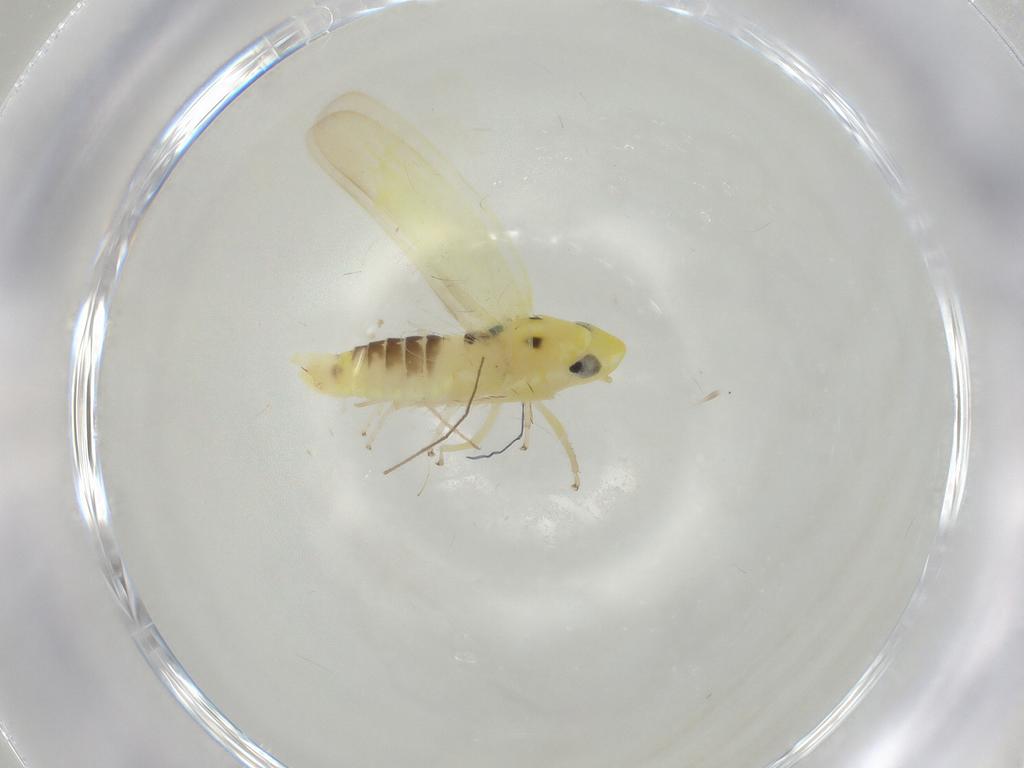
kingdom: Animalia
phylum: Arthropoda
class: Insecta
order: Hemiptera
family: Cicadellidae
